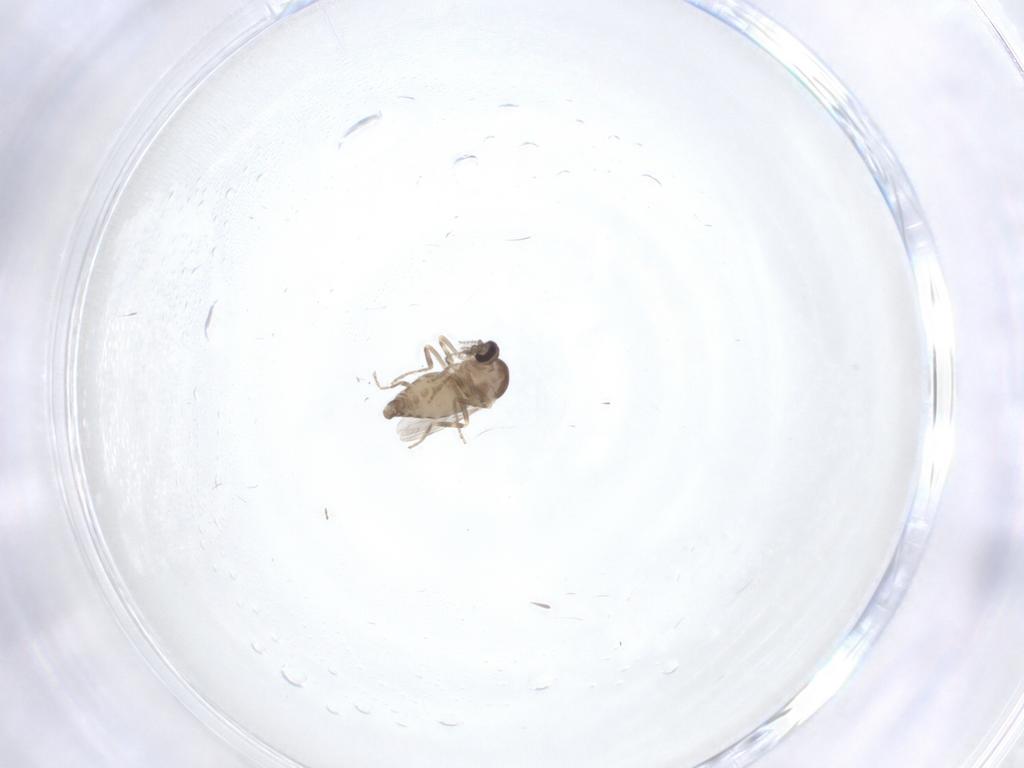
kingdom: Animalia
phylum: Arthropoda
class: Insecta
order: Diptera
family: Ceratopogonidae
